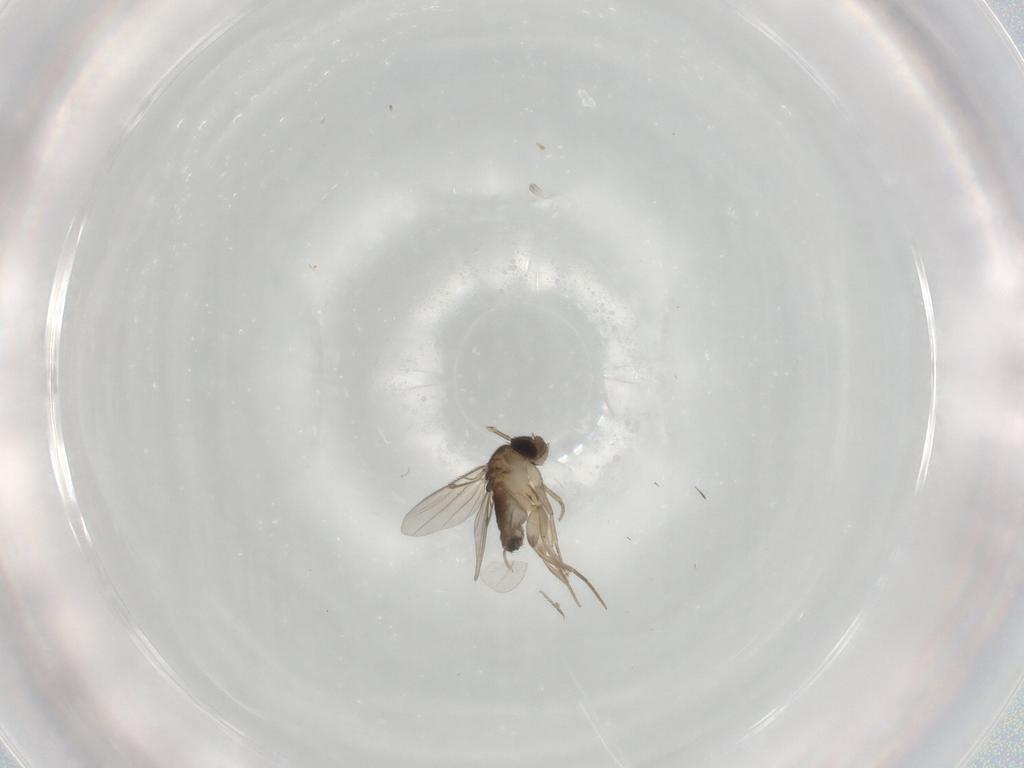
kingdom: Animalia
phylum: Arthropoda
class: Insecta
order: Diptera
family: Phoridae
